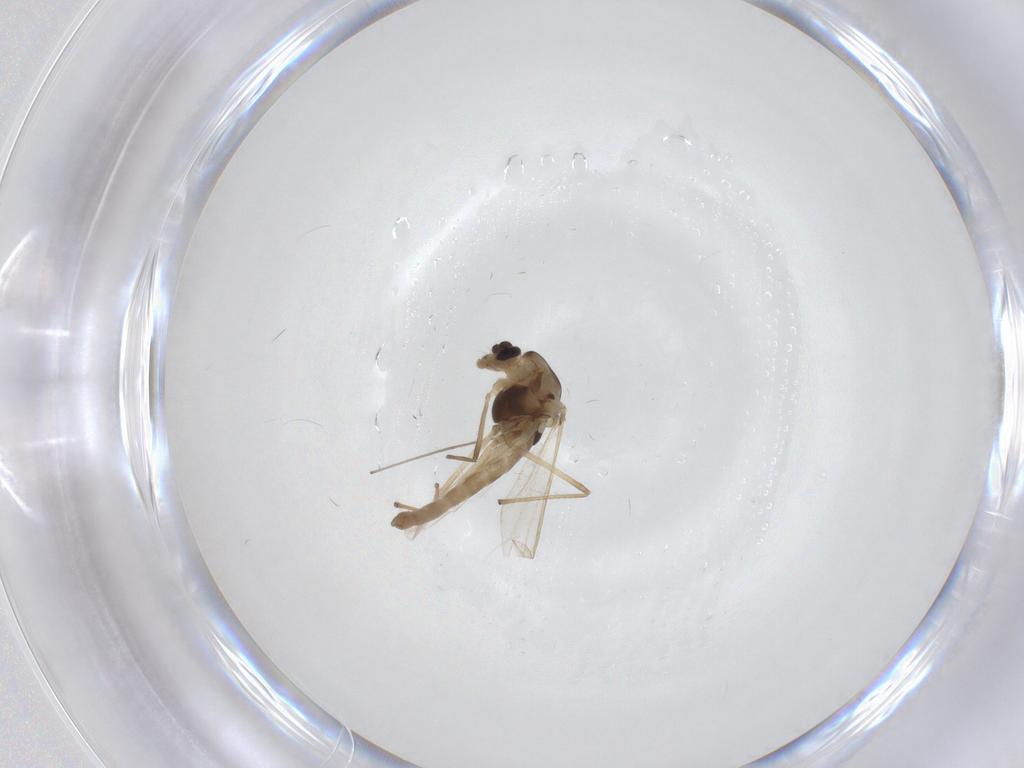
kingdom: Animalia
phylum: Arthropoda
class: Insecta
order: Diptera
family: Chironomidae
